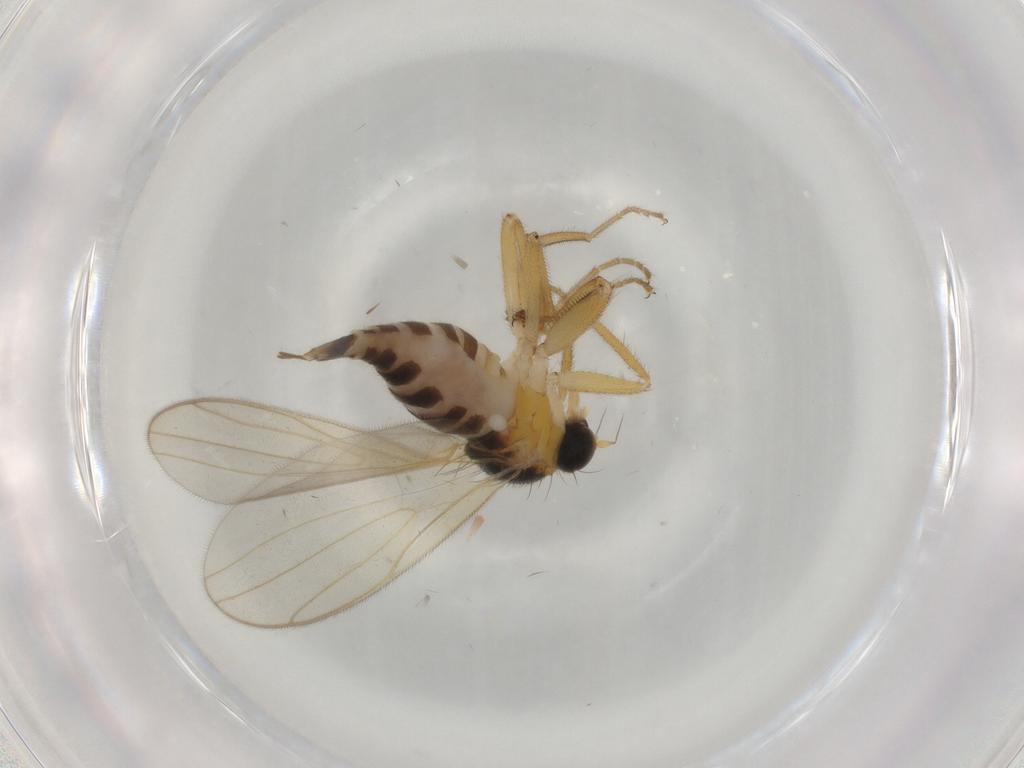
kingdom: Animalia
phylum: Arthropoda
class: Insecta
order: Diptera
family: Hybotidae
